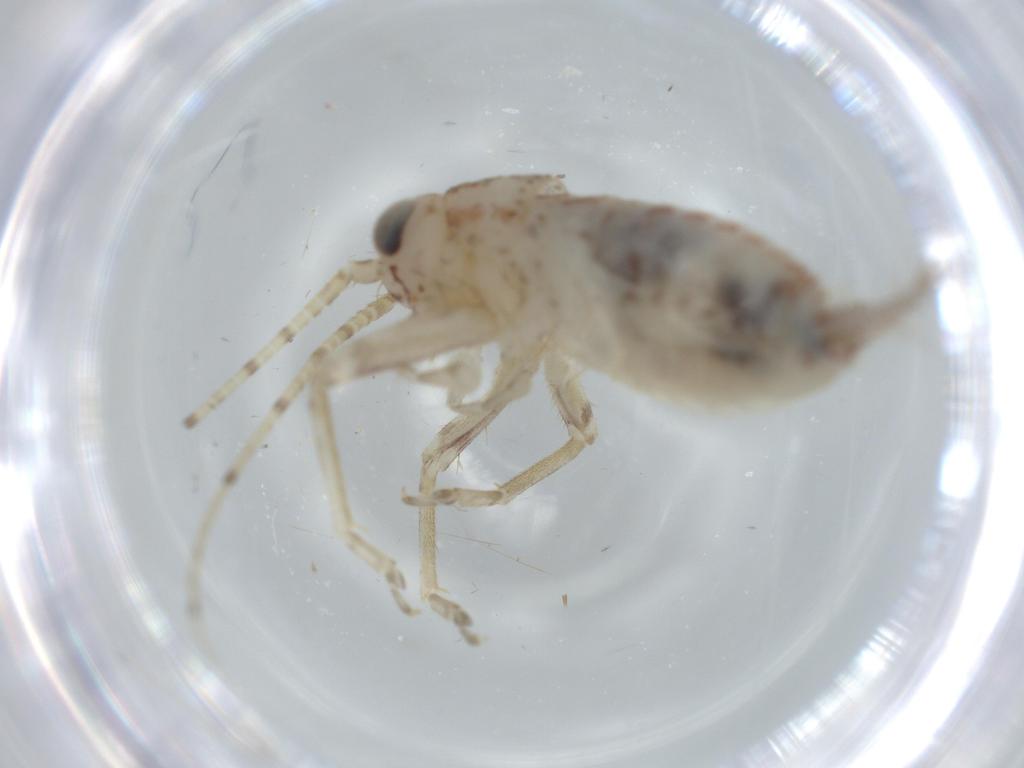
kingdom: Animalia
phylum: Arthropoda
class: Insecta
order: Orthoptera
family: Trigonidiidae
